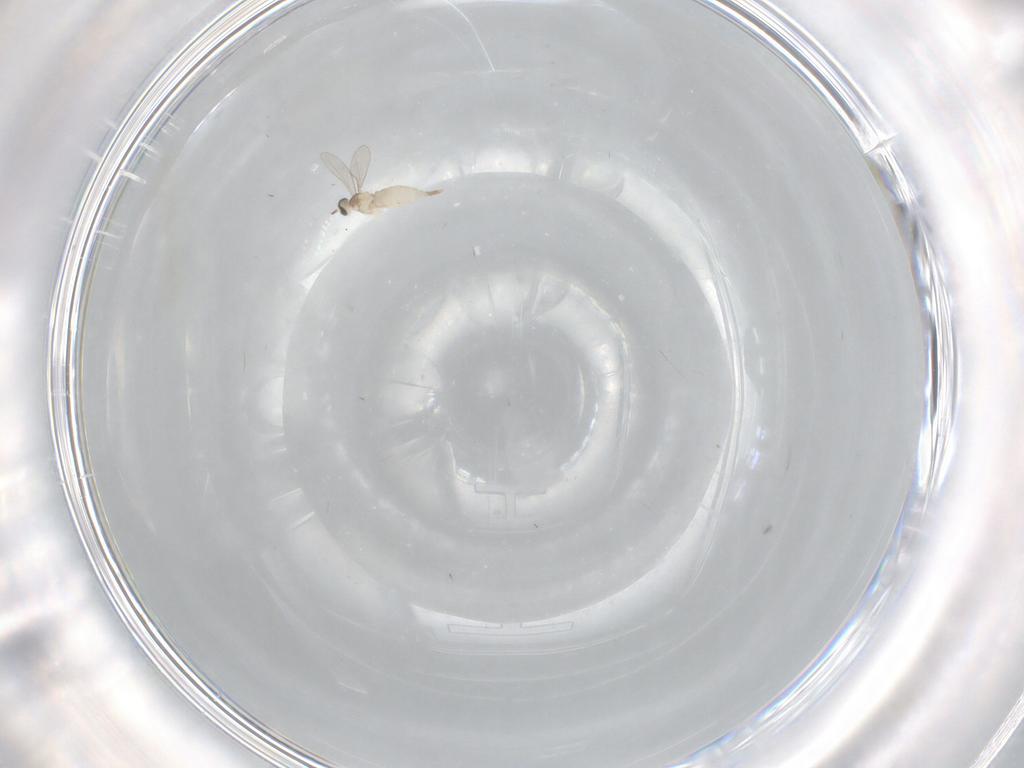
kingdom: Animalia
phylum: Arthropoda
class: Insecta
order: Diptera
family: Cecidomyiidae
